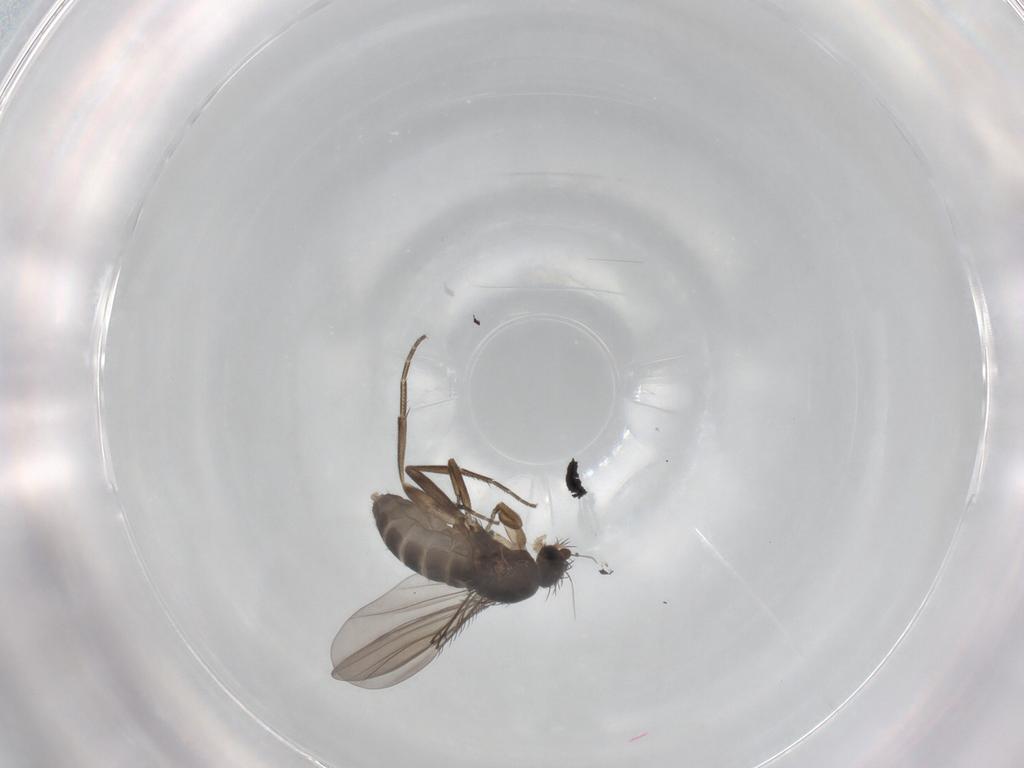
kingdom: Animalia
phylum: Arthropoda
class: Insecta
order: Diptera
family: Phoridae
